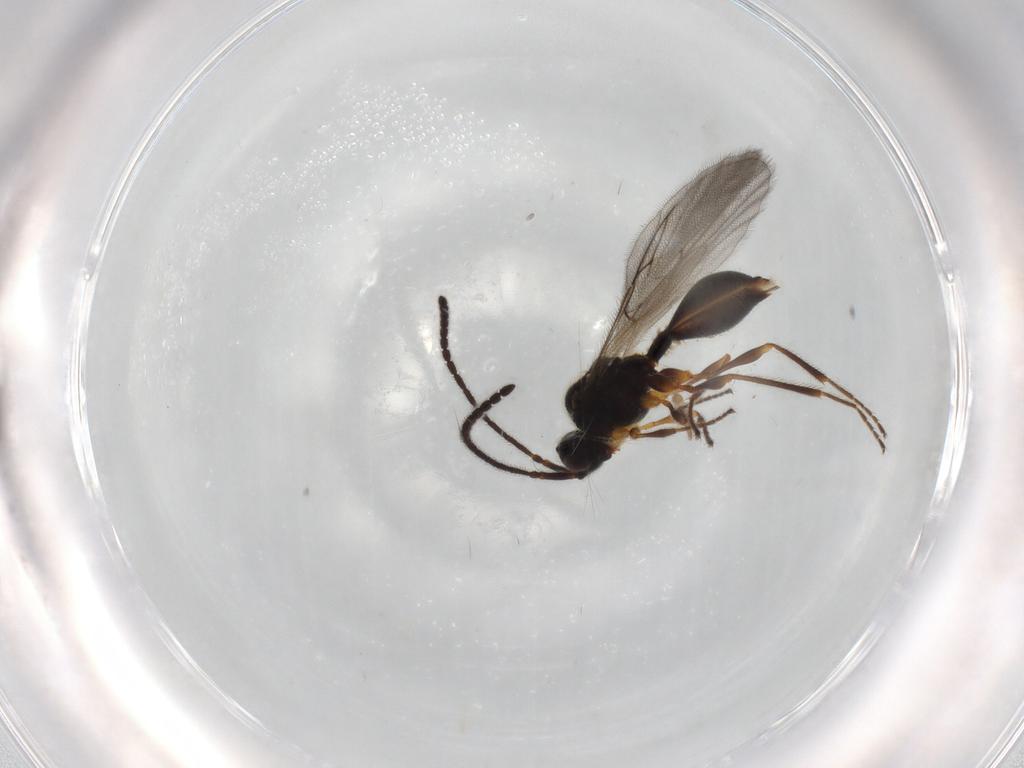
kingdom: Animalia
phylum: Arthropoda
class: Insecta
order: Hymenoptera
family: Diapriidae
